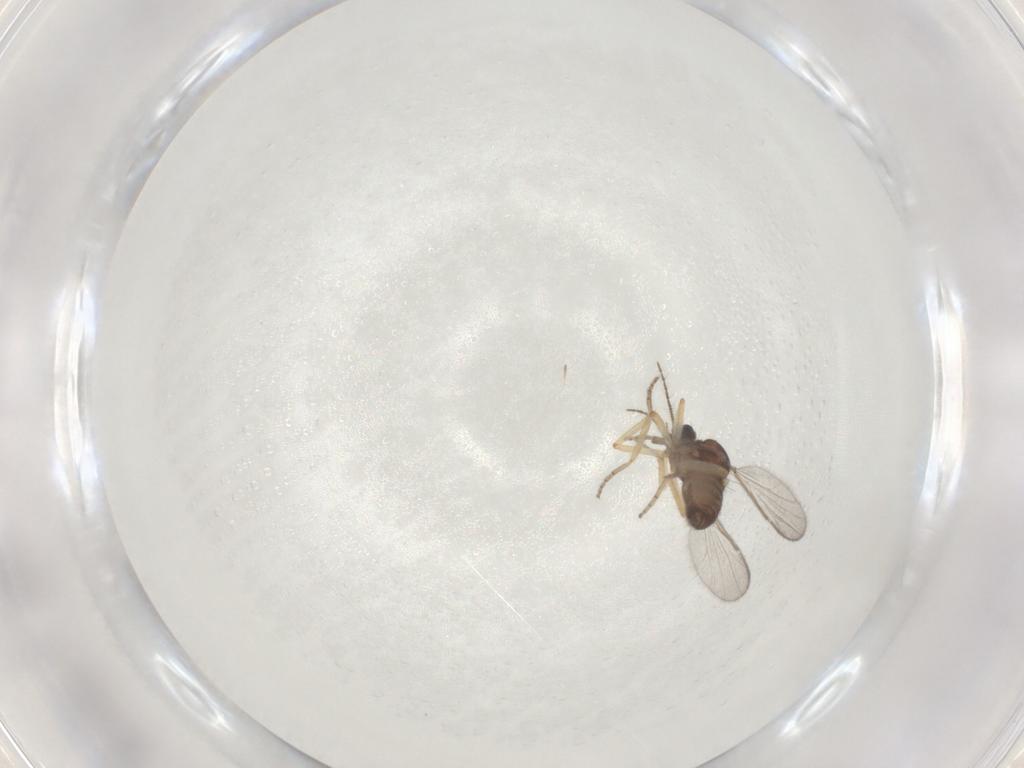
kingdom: Animalia
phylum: Arthropoda
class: Insecta
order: Diptera
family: Ceratopogonidae
